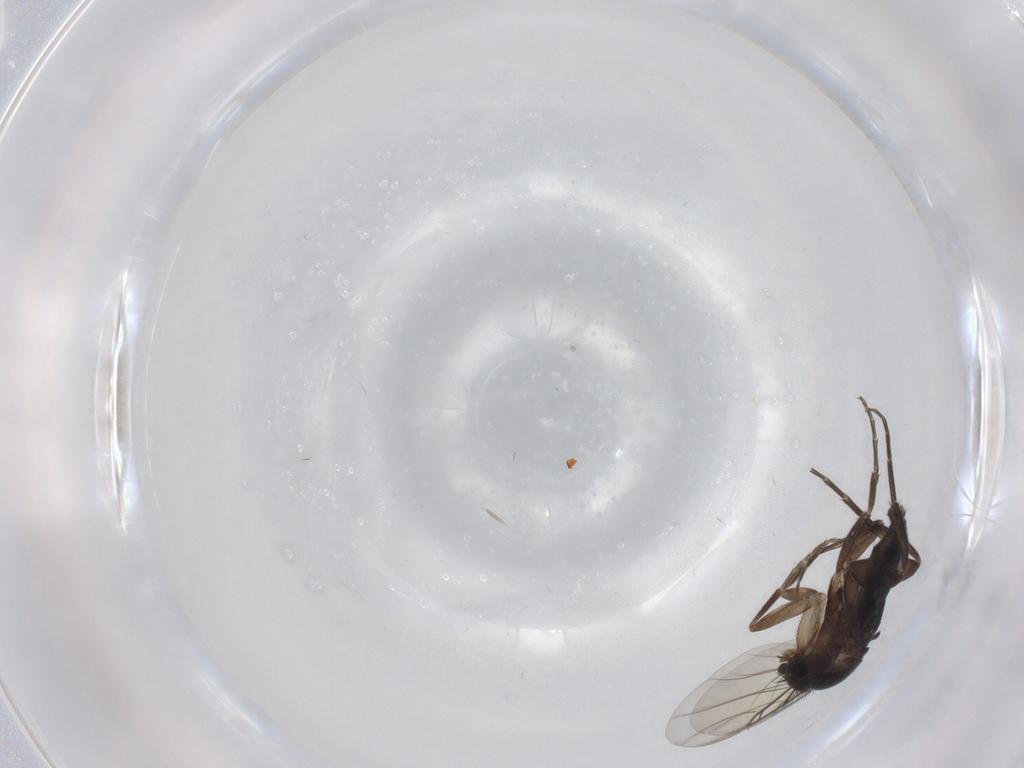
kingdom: Animalia
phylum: Arthropoda
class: Insecta
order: Diptera
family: Phoridae
